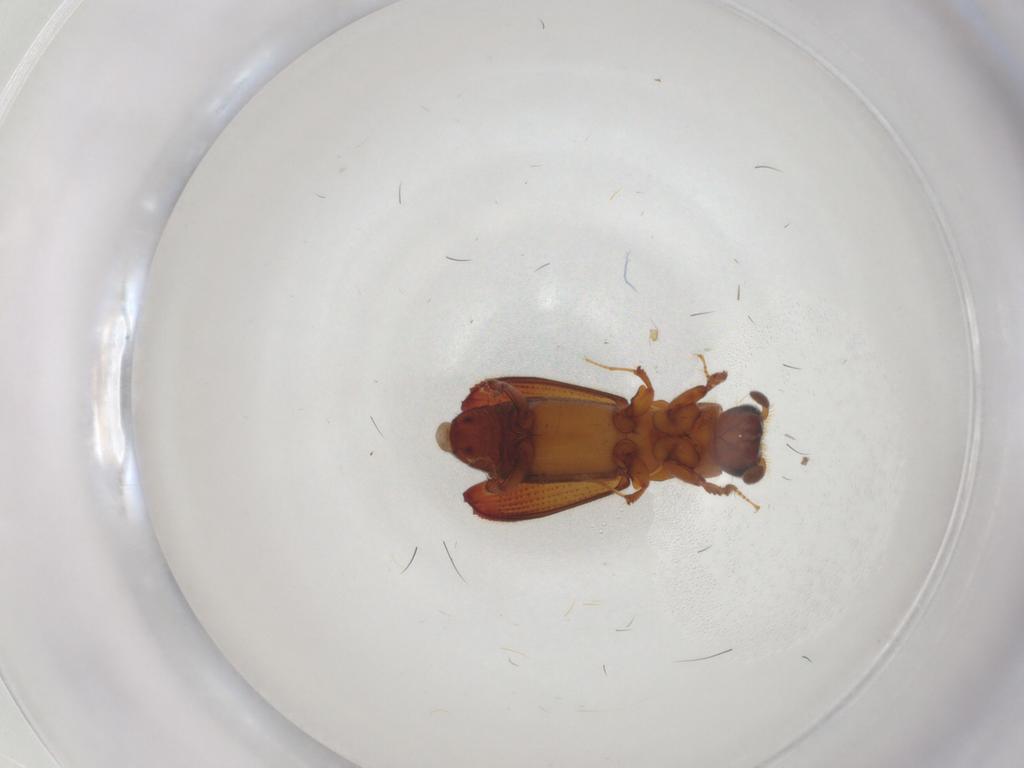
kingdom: Animalia
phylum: Arthropoda
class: Insecta
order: Coleoptera
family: Curculionidae
